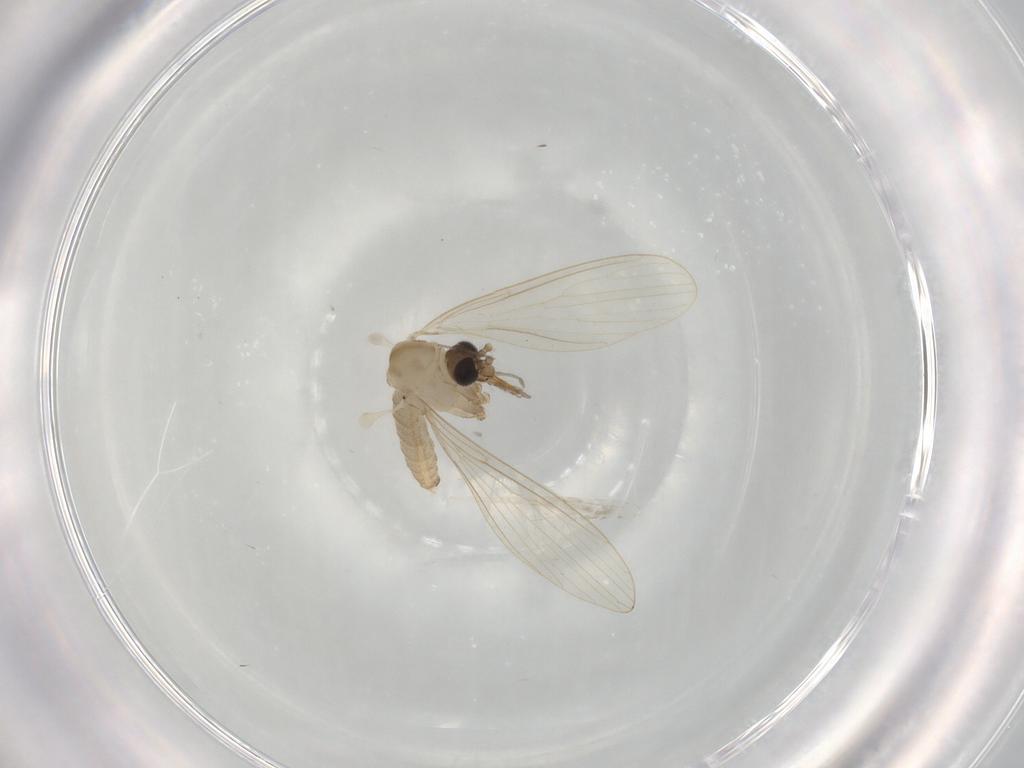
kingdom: Animalia
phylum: Arthropoda
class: Insecta
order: Diptera
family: Psychodidae
